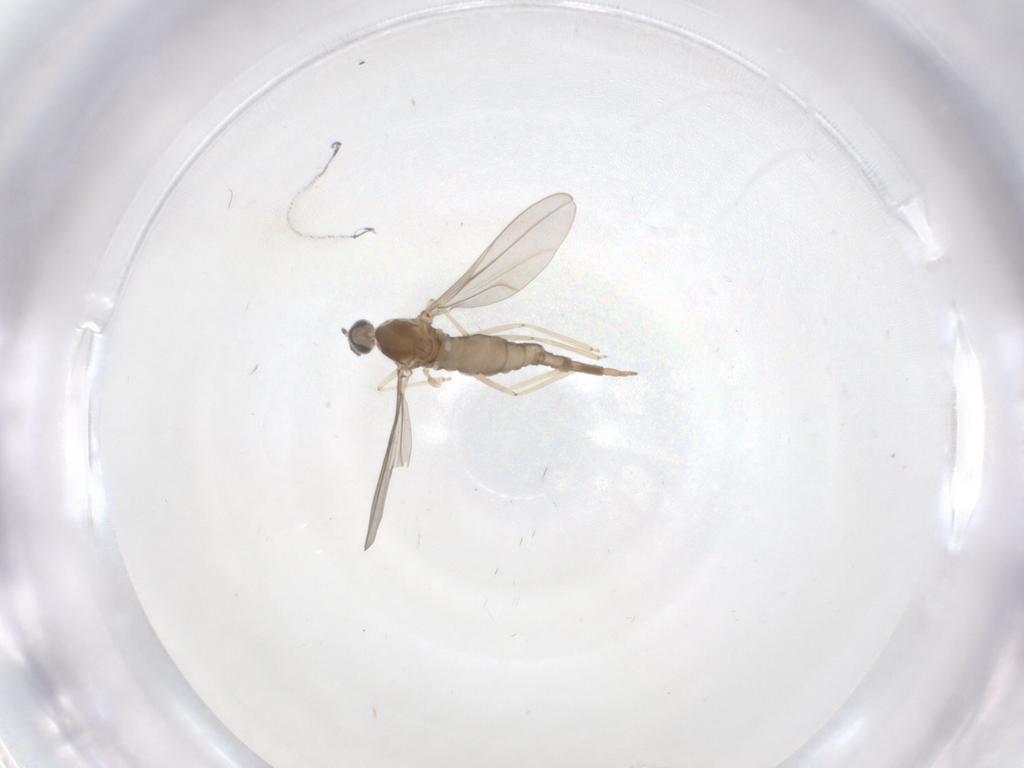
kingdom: Animalia
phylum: Arthropoda
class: Insecta
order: Diptera
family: Cecidomyiidae
